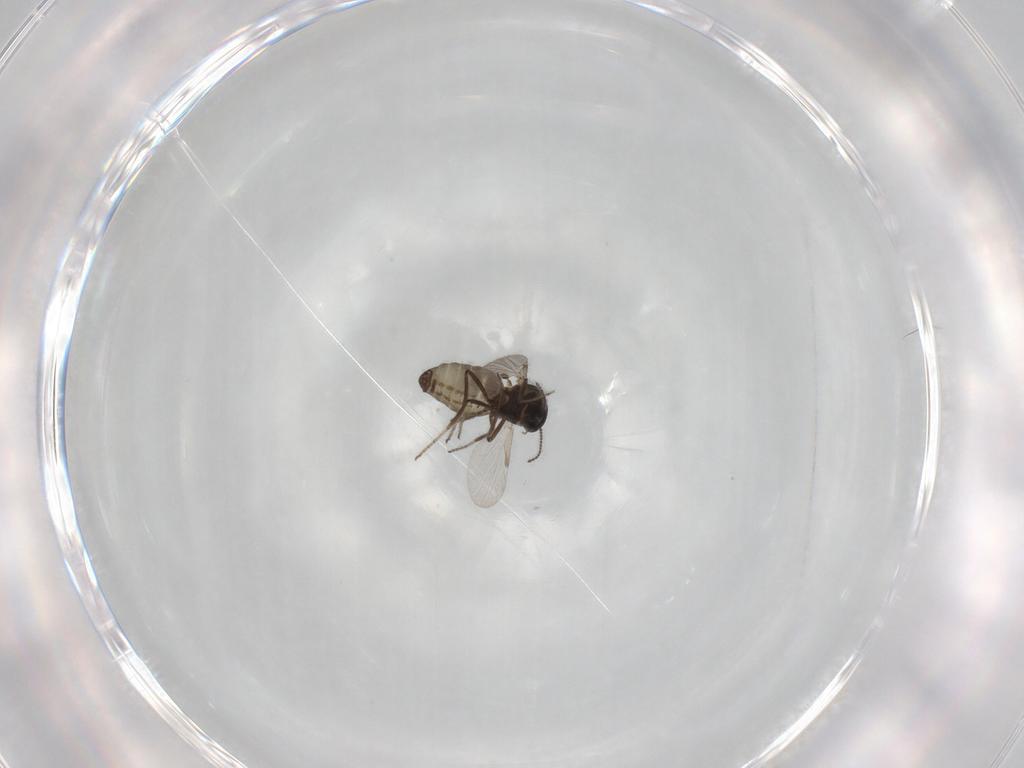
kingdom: Animalia
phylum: Arthropoda
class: Insecta
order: Diptera
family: Ceratopogonidae
